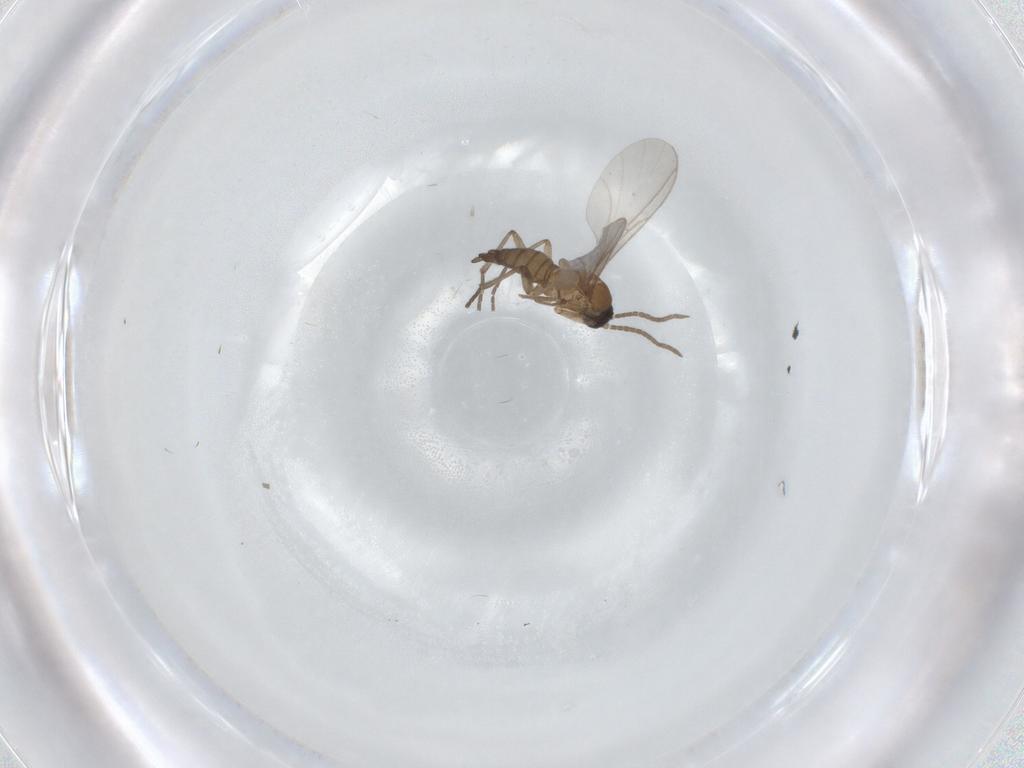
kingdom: Animalia
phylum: Arthropoda
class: Insecta
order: Diptera
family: Sciaridae
